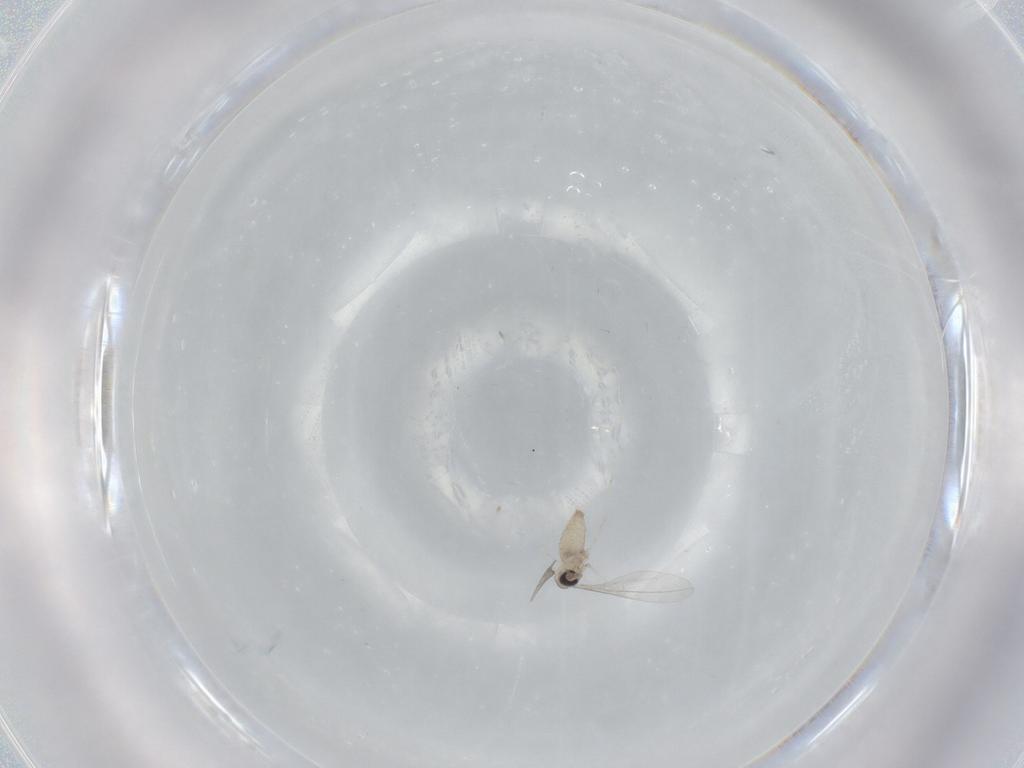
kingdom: Animalia
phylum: Arthropoda
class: Insecta
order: Diptera
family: Cecidomyiidae
